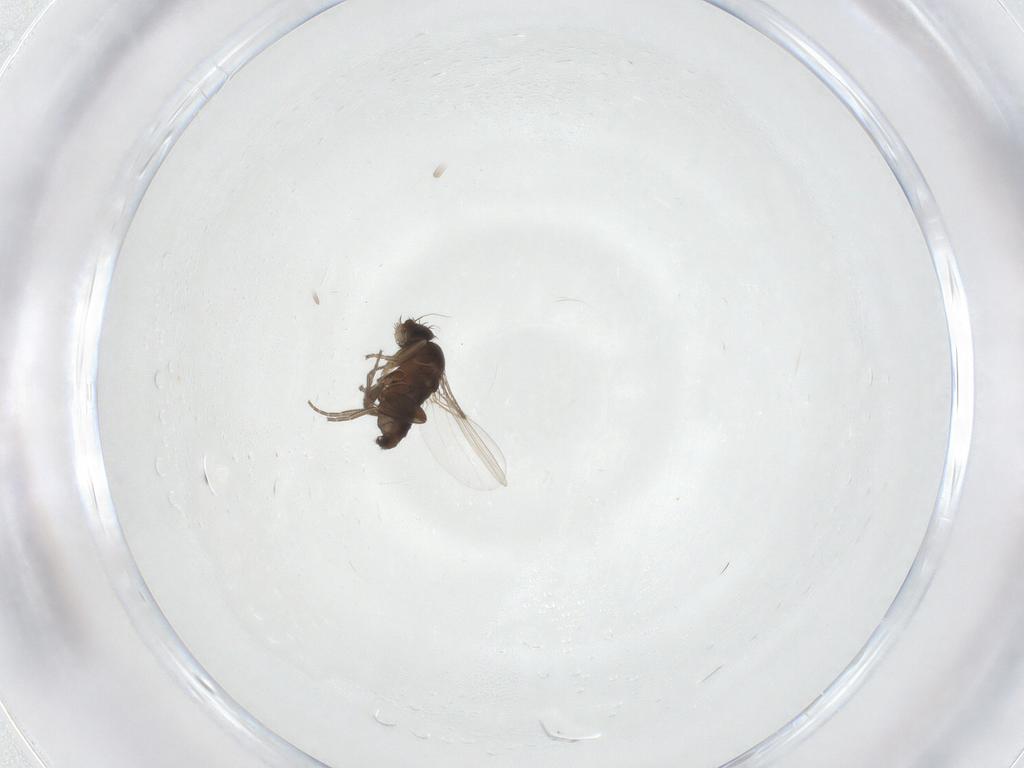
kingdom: Animalia
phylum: Arthropoda
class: Insecta
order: Diptera
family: Phoridae
